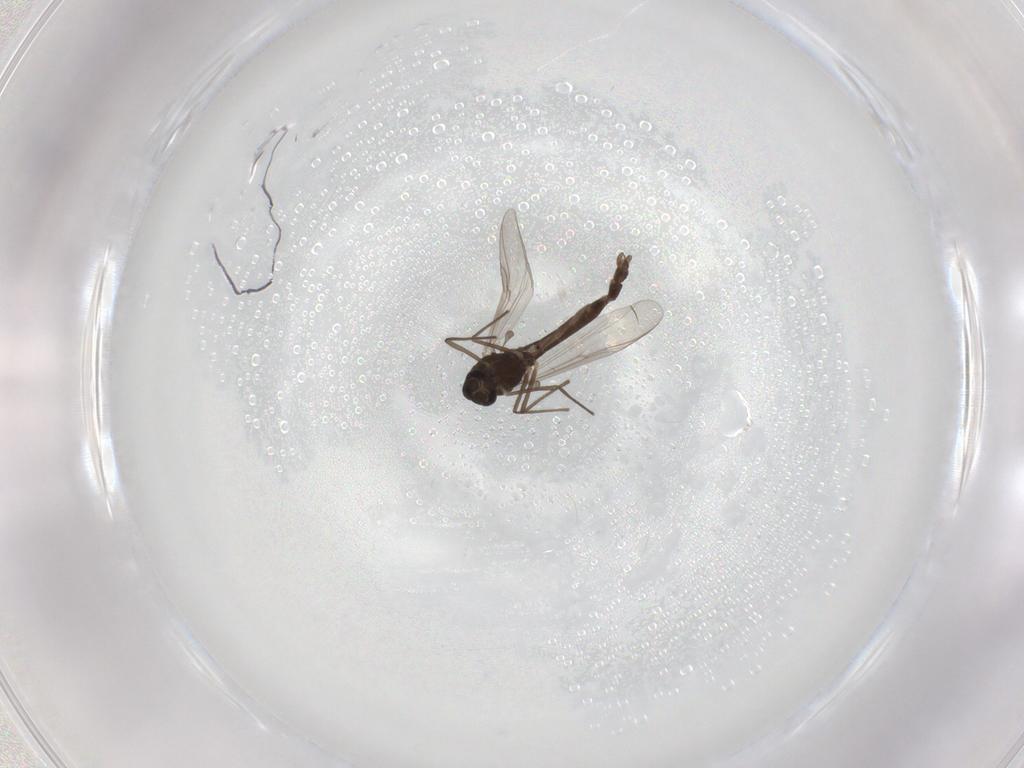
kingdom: Animalia
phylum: Arthropoda
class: Insecta
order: Diptera
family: Chironomidae
